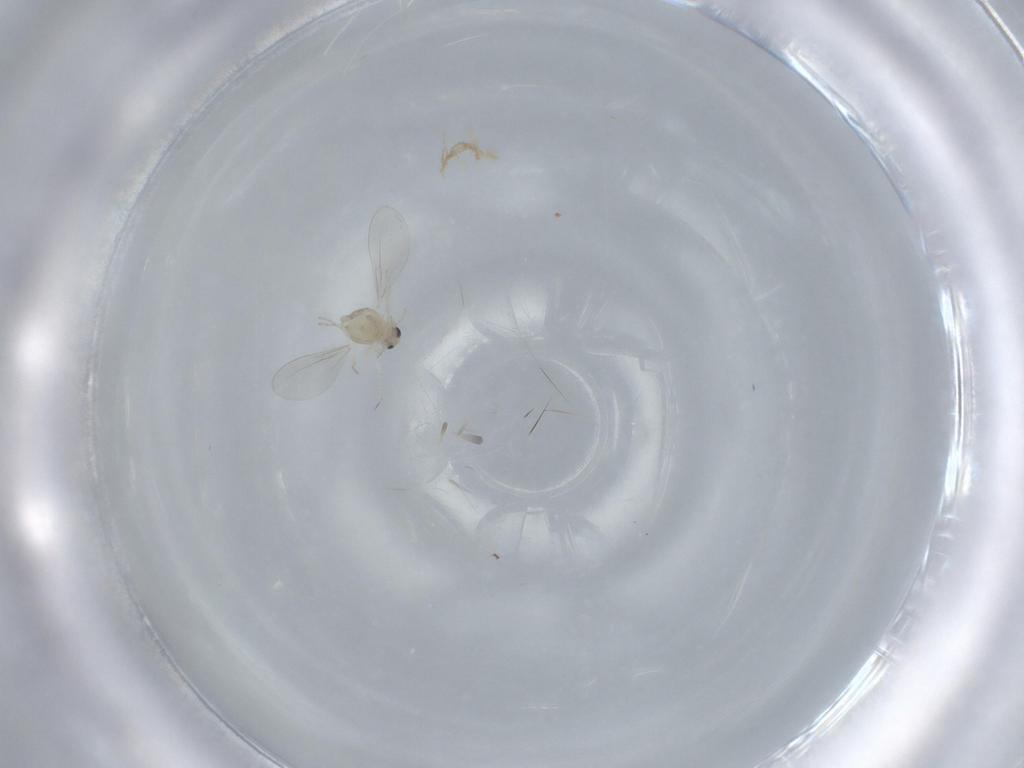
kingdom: Animalia
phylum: Arthropoda
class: Insecta
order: Diptera
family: Cecidomyiidae
